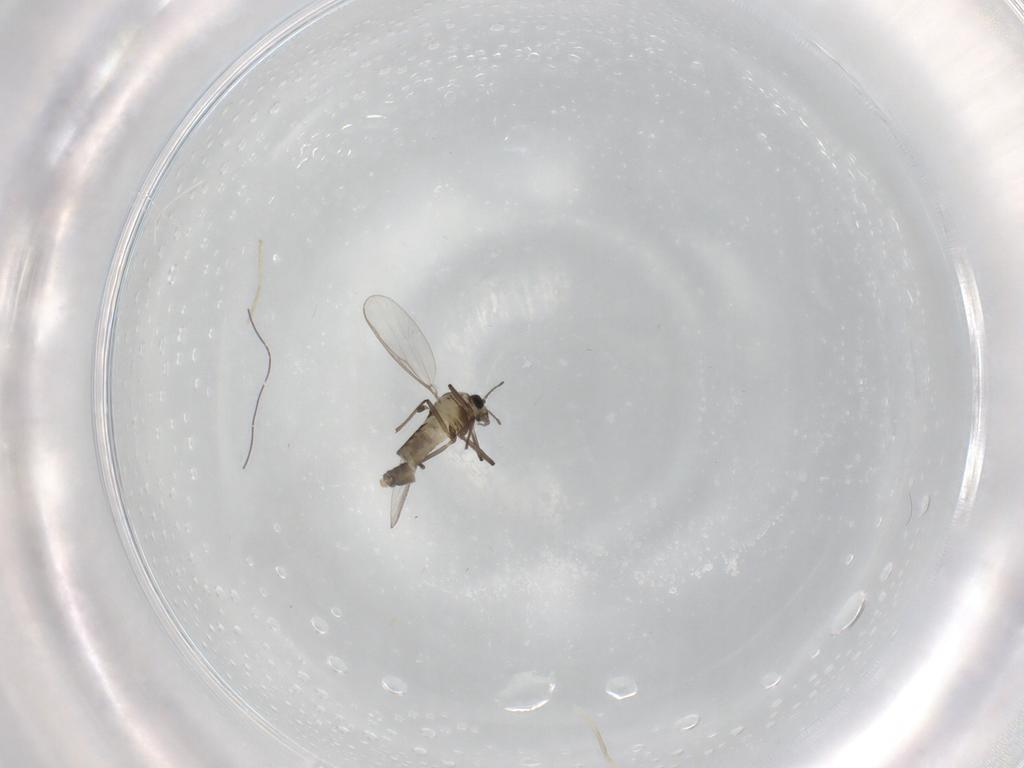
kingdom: Animalia
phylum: Arthropoda
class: Insecta
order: Diptera
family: Chironomidae
